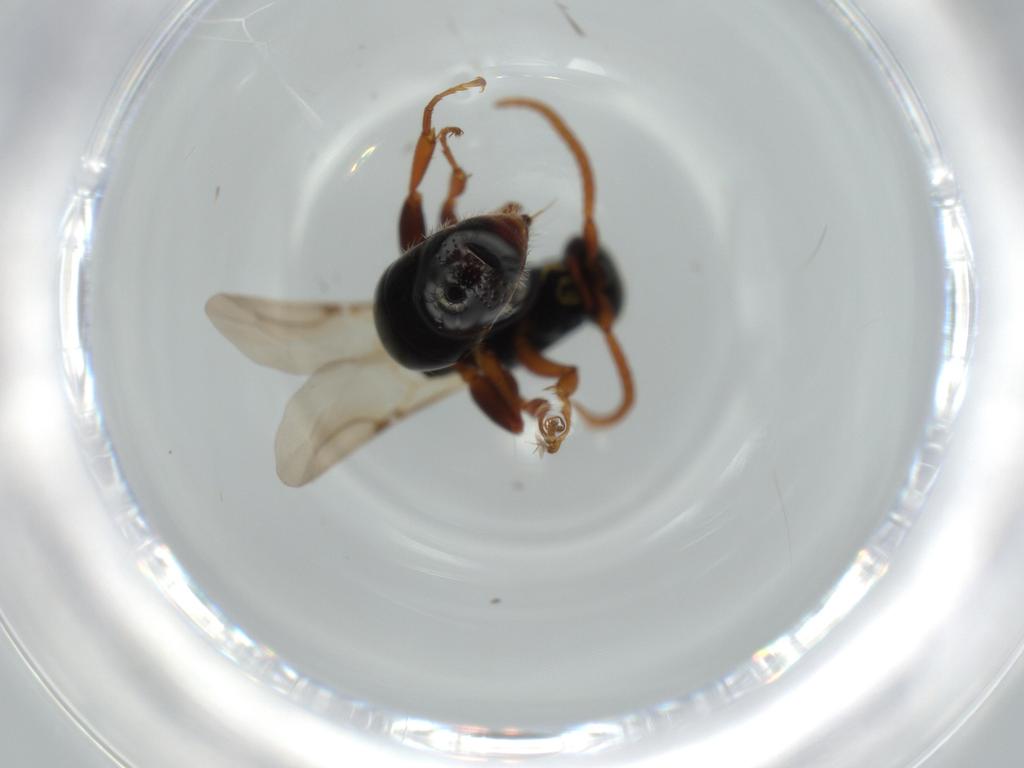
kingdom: Animalia
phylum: Arthropoda
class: Insecta
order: Hymenoptera
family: Bethylidae
